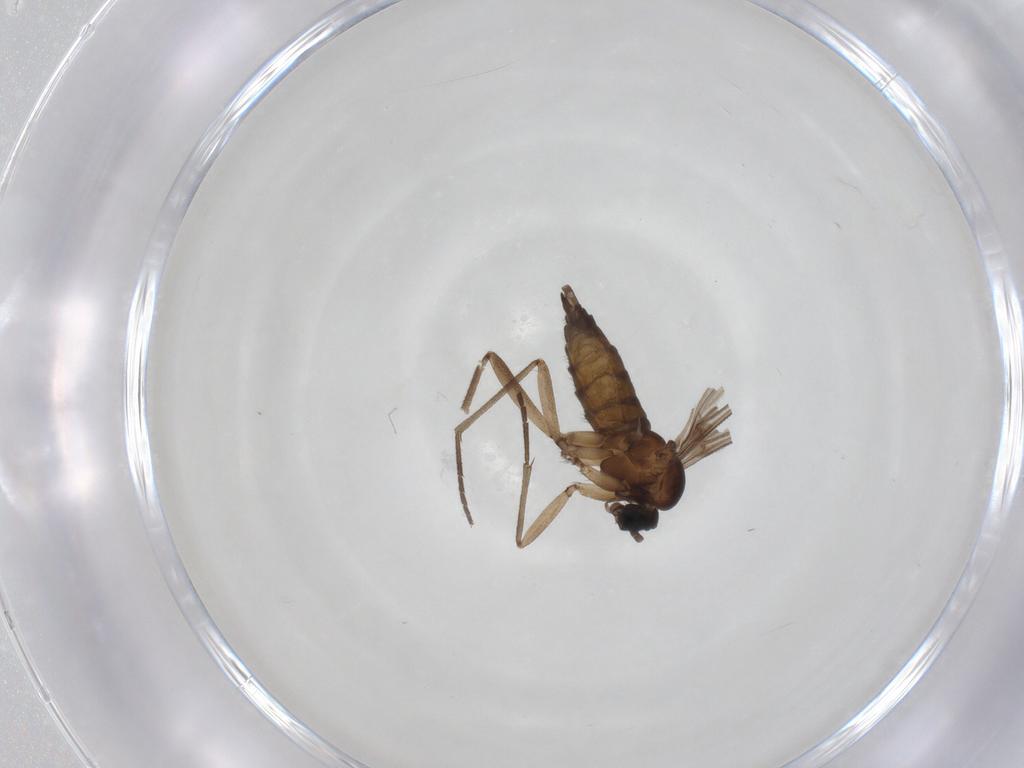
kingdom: Animalia
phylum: Arthropoda
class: Insecta
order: Diptera
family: Sciaridae
